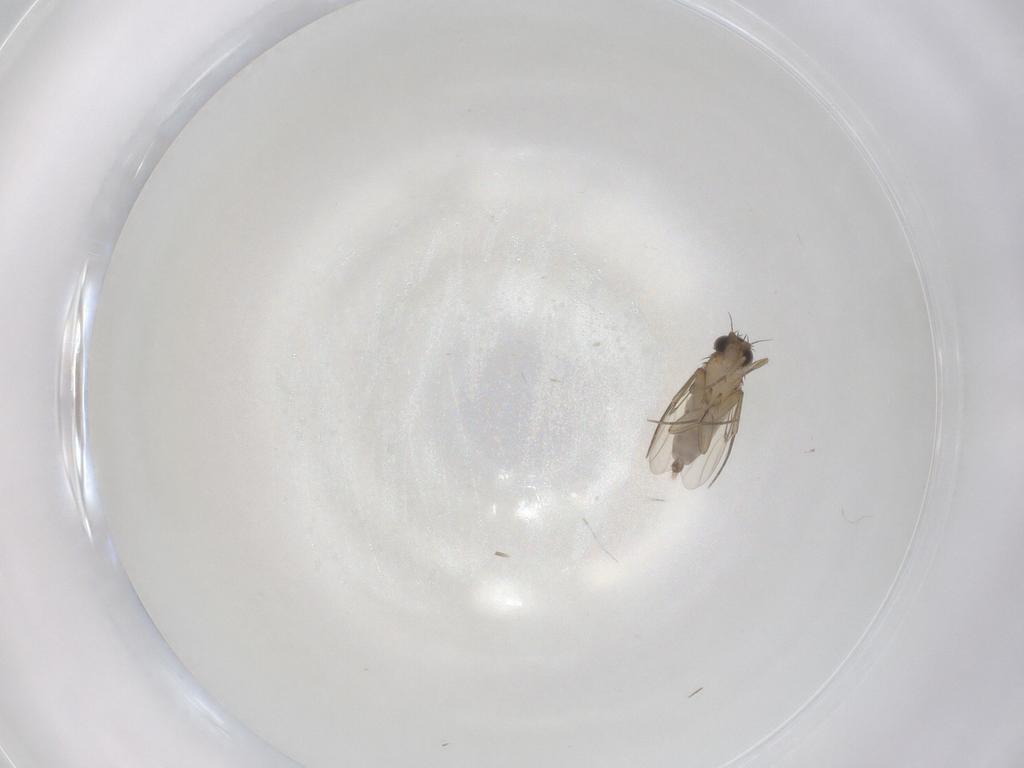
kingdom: Animalia
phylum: Arthropoda
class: Insecta
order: Diptera
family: Phoridae
